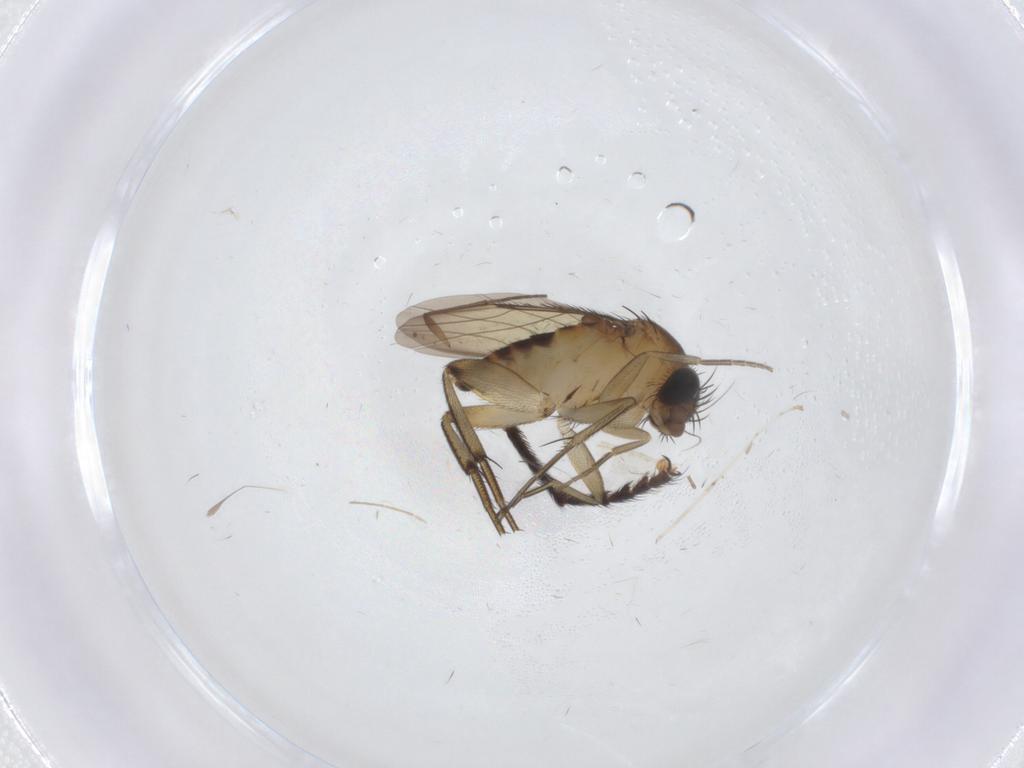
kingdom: Animalia
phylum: Arthropoda
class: Insecta
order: Diptera
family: Phoridae
